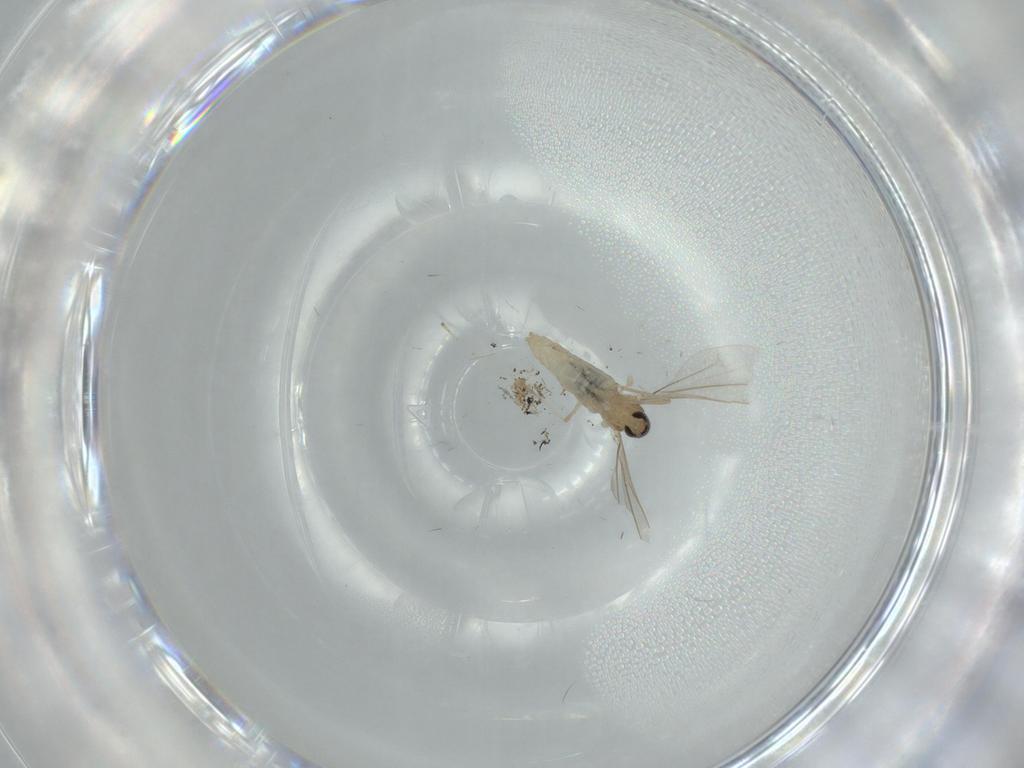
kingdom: Animalia
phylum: Arthropoda
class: Insecta
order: Diptera
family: Cecidomyiidae
